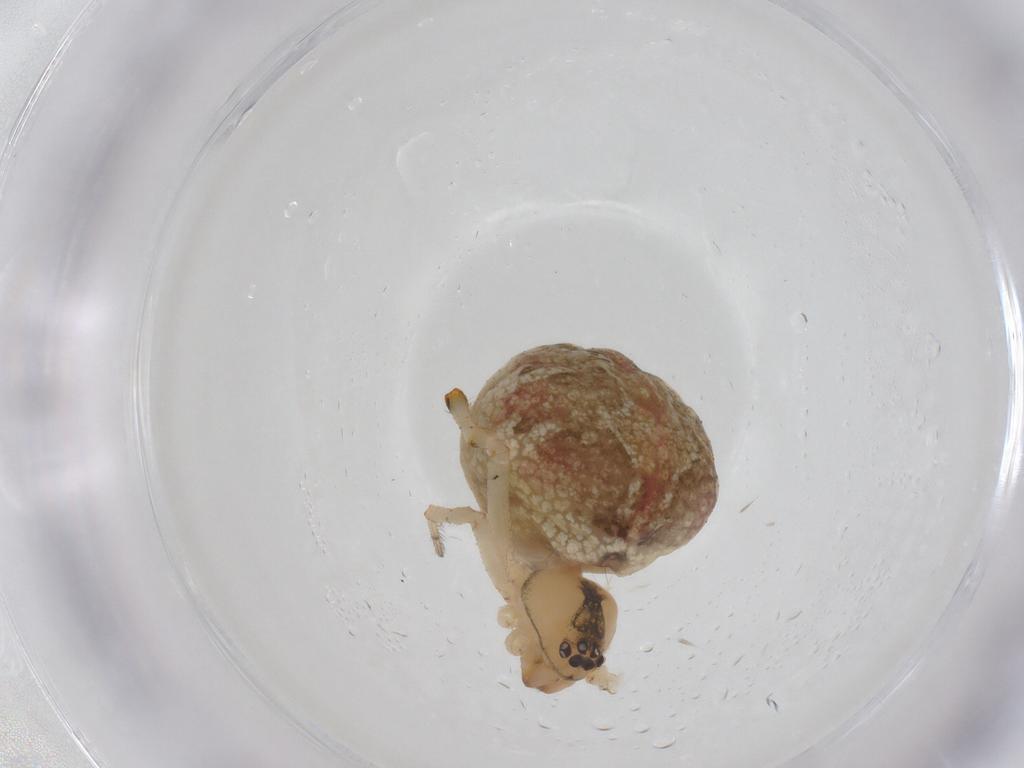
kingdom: Animalia
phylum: Arthropoda
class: Arachnida
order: Araneae
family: Theridiidae
